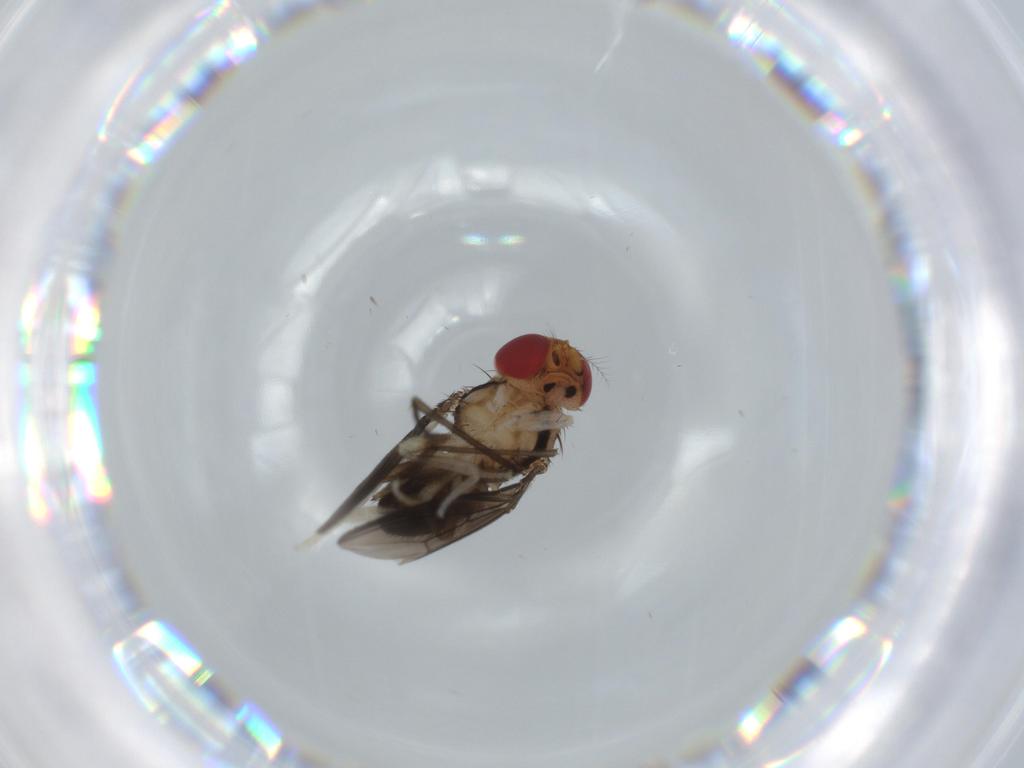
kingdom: Animalia
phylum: Arthropoda
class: Insecta
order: Diptera
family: Drosophilidae
